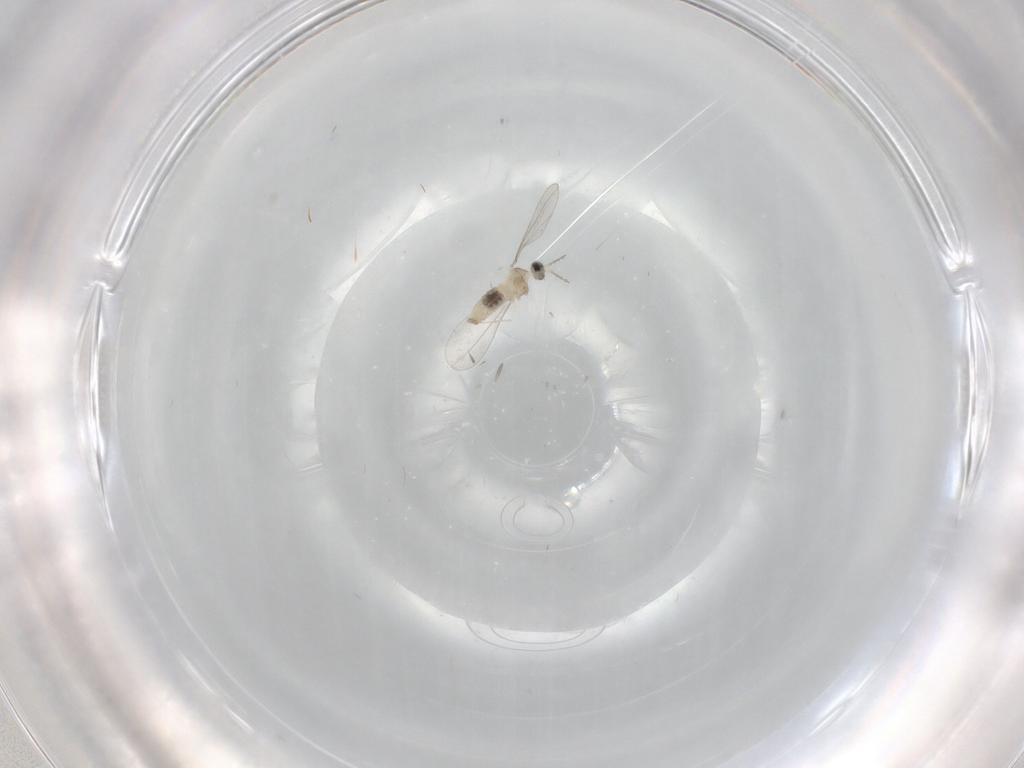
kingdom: Animalia
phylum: Arthropoda
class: Insecta
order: Diptera
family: Cecidomyiidae
